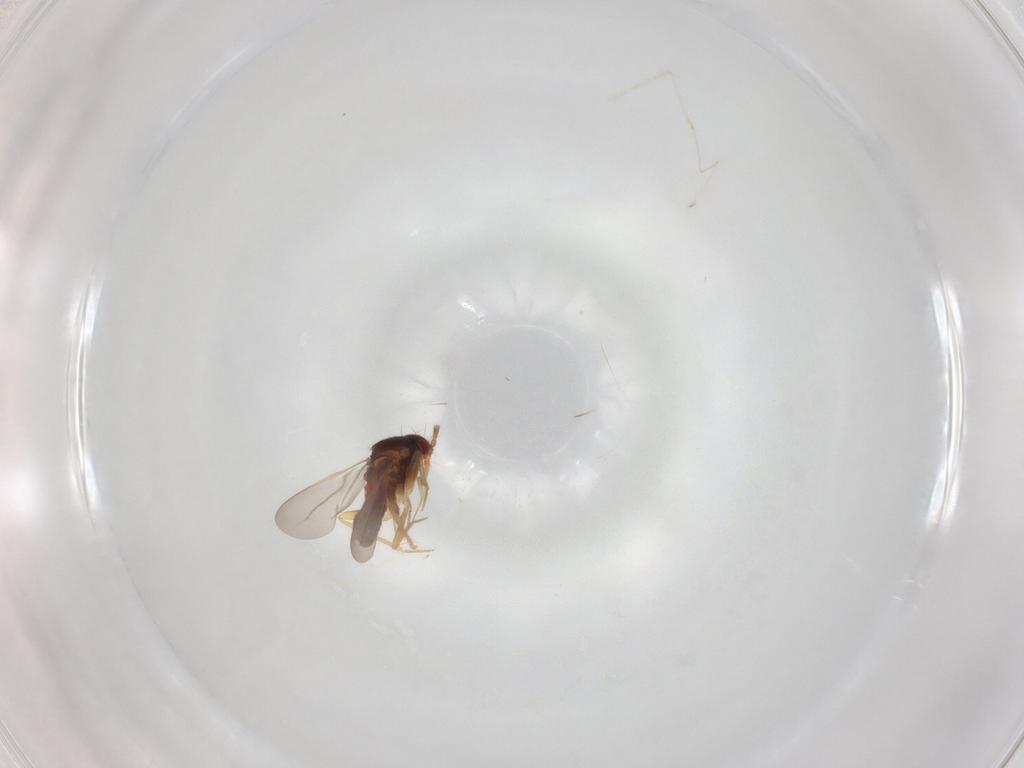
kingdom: Animalia
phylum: Arthropoda
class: Insecta
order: Hemiptera
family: Ceratocombidae
